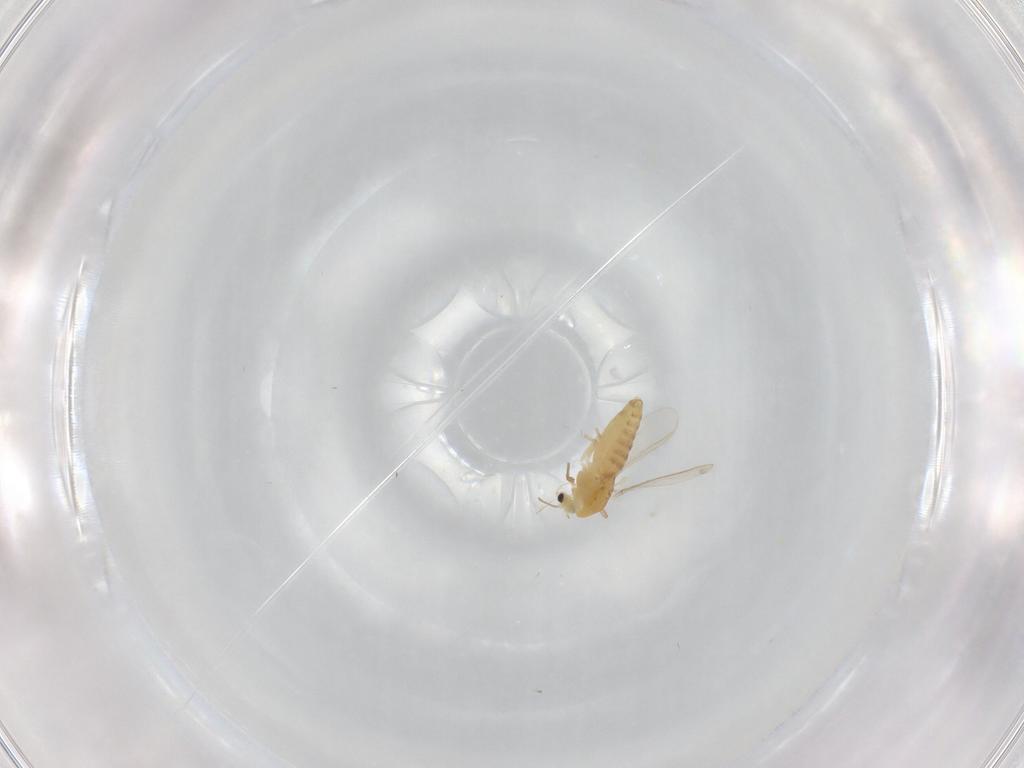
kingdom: Animalia
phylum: Arthropoda
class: Insecta
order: Diptera
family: Chironomidae
